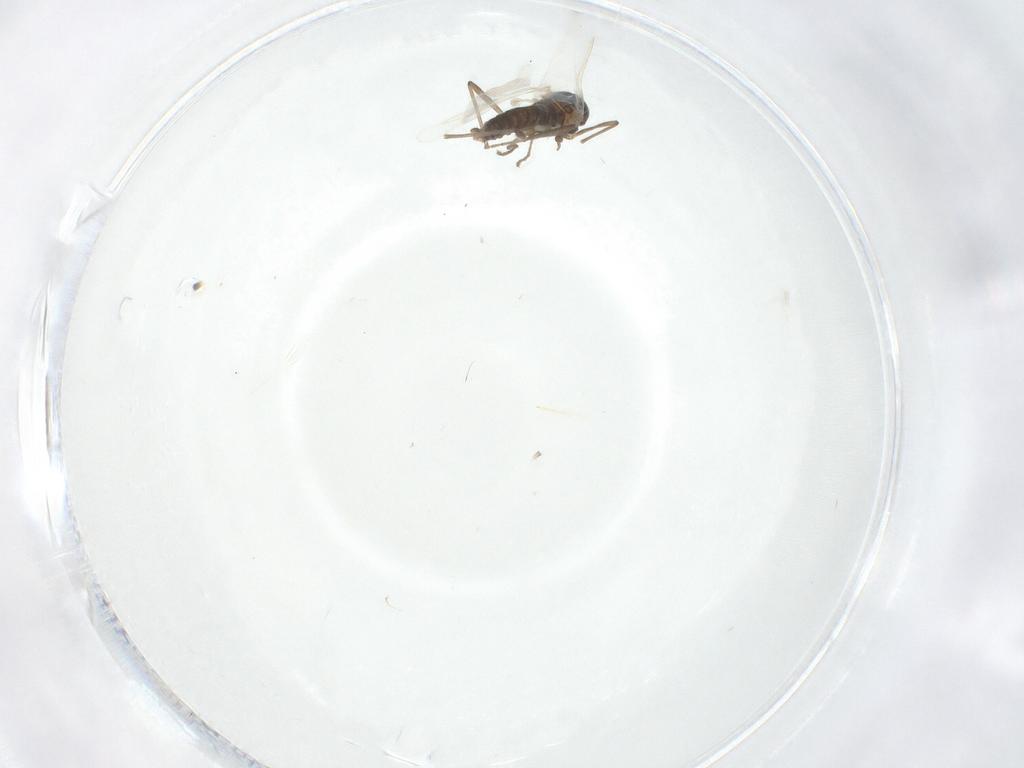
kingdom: Animalia
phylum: Arthropoda
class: Insecta
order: Diptera
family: Cecidomyiidae
